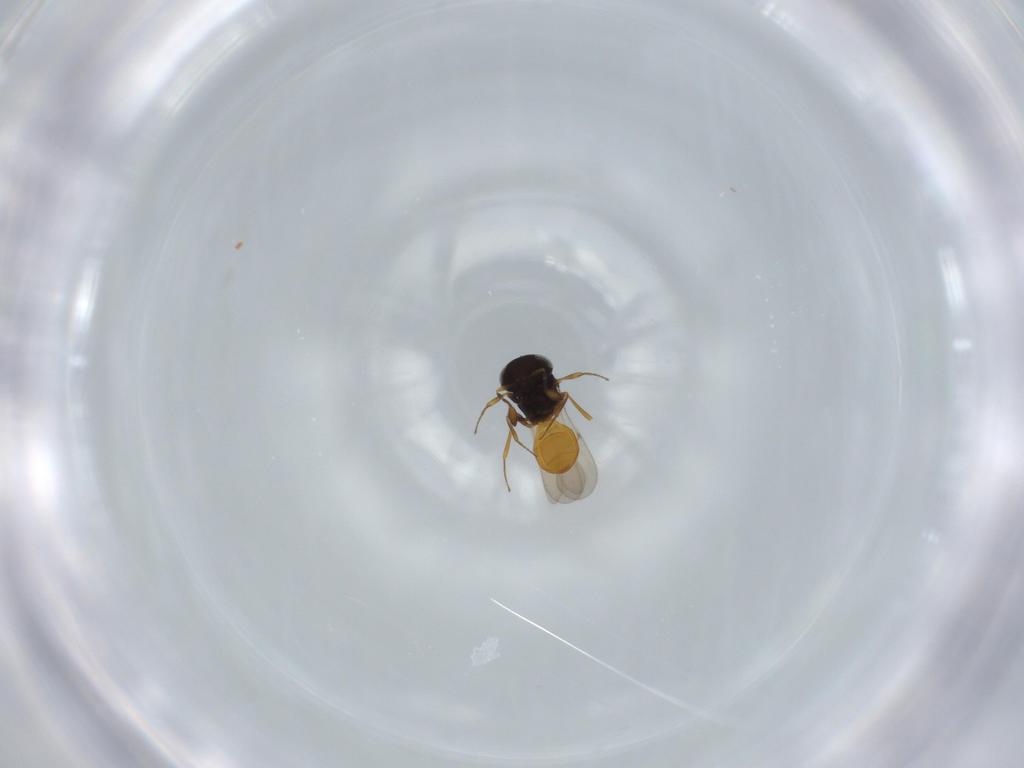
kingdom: Animalia
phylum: Arthropoda
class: Insecta
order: Hymenoptera
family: Scelionidae
